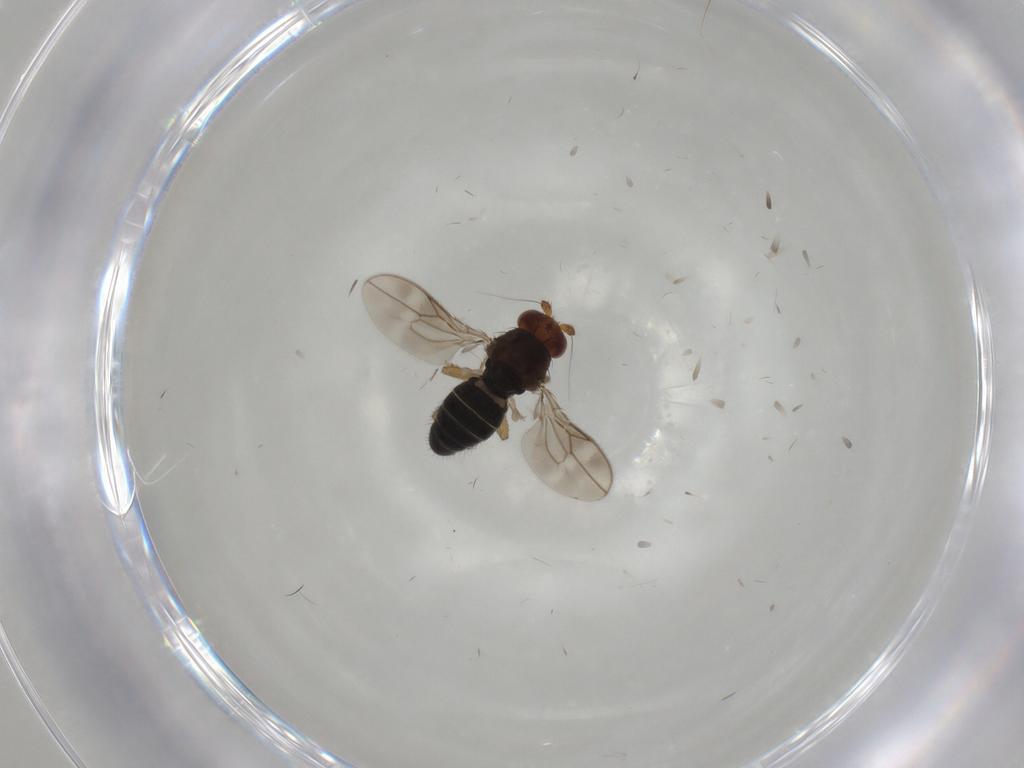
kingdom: Animalia
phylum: Arthropoda
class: Insecta
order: Diptera
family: Sphaeroceridae
